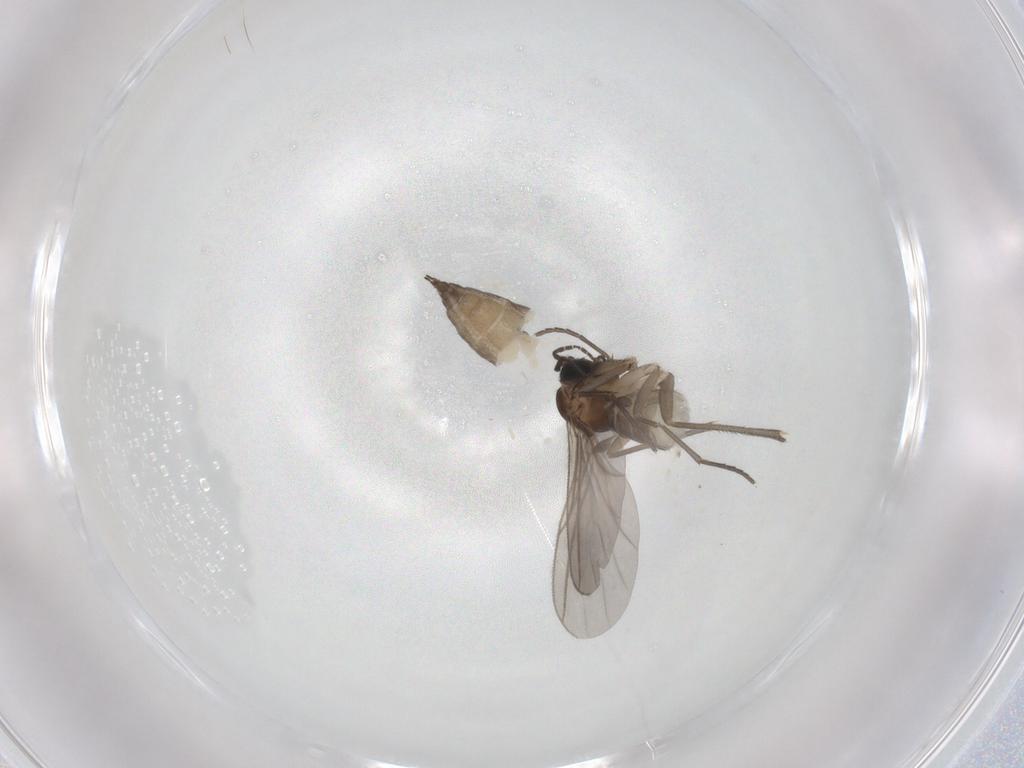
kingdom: Animalia
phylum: Arthropoda
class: Insecta
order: Diptera
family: Sciaridae
